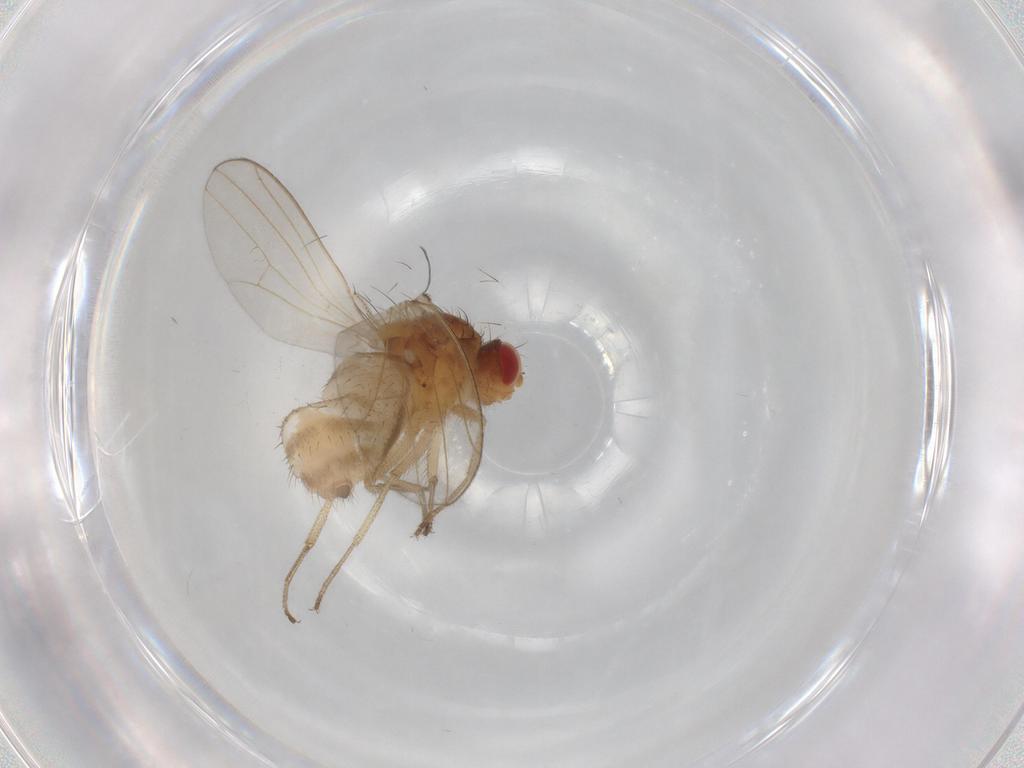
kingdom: Animalia
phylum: Arthropoda
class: Insecta
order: Diptera
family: Drosophilidae
